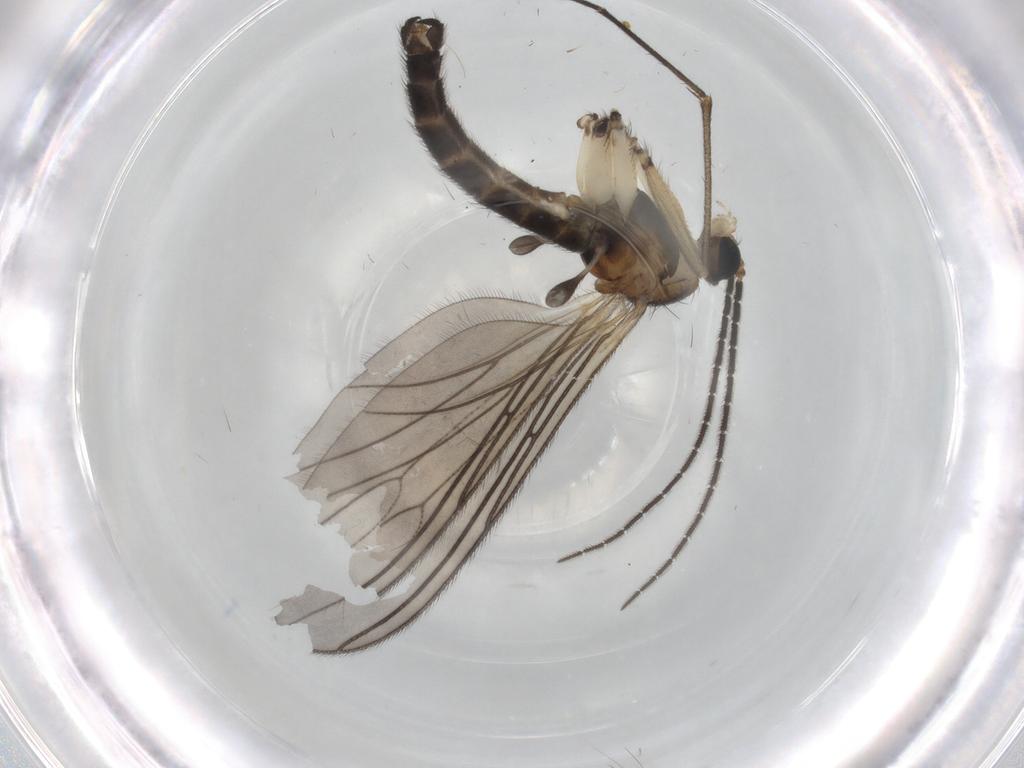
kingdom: Animalia
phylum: Arthropoda
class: Insecta
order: Diptera
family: Sciaridae
